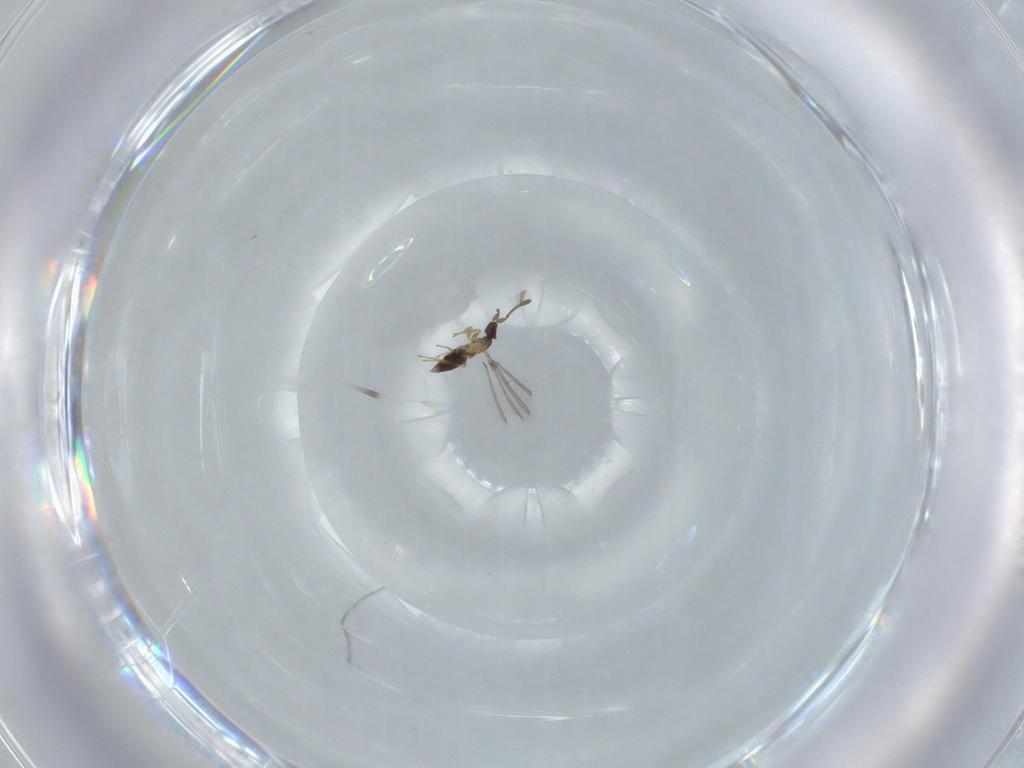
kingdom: Animalia
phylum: Arthropoda
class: Insecta
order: Hymenoptera
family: Mymaridae
